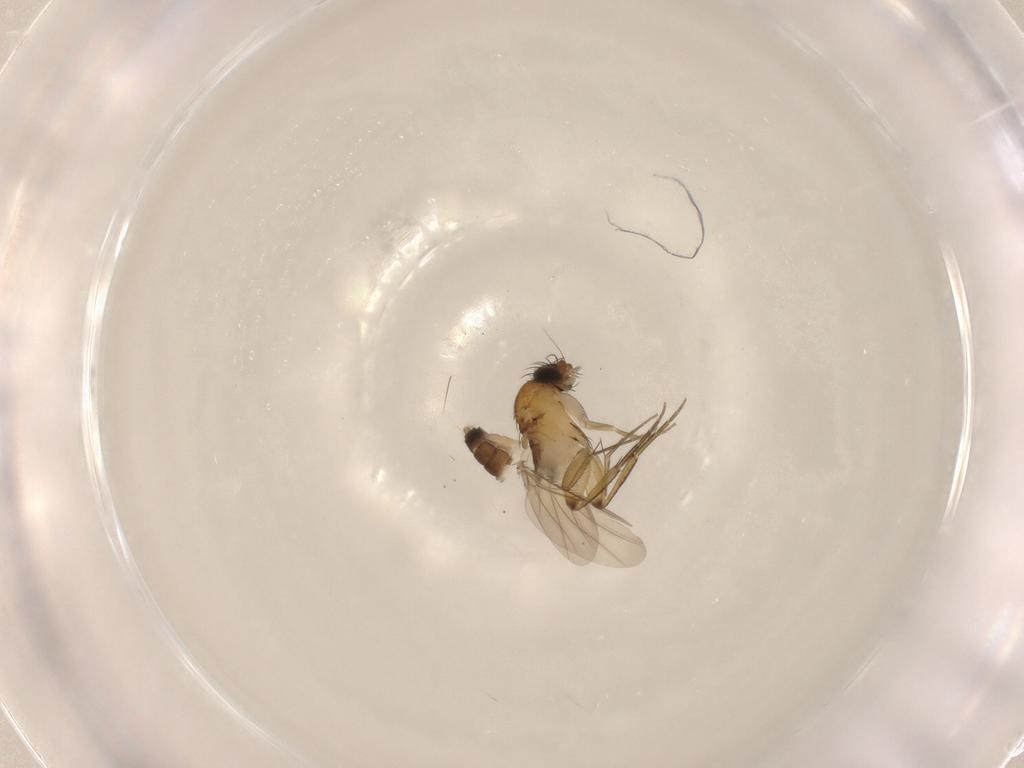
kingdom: Animalia
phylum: Arthropoda
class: Insecta
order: Diptera
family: Phoridae
